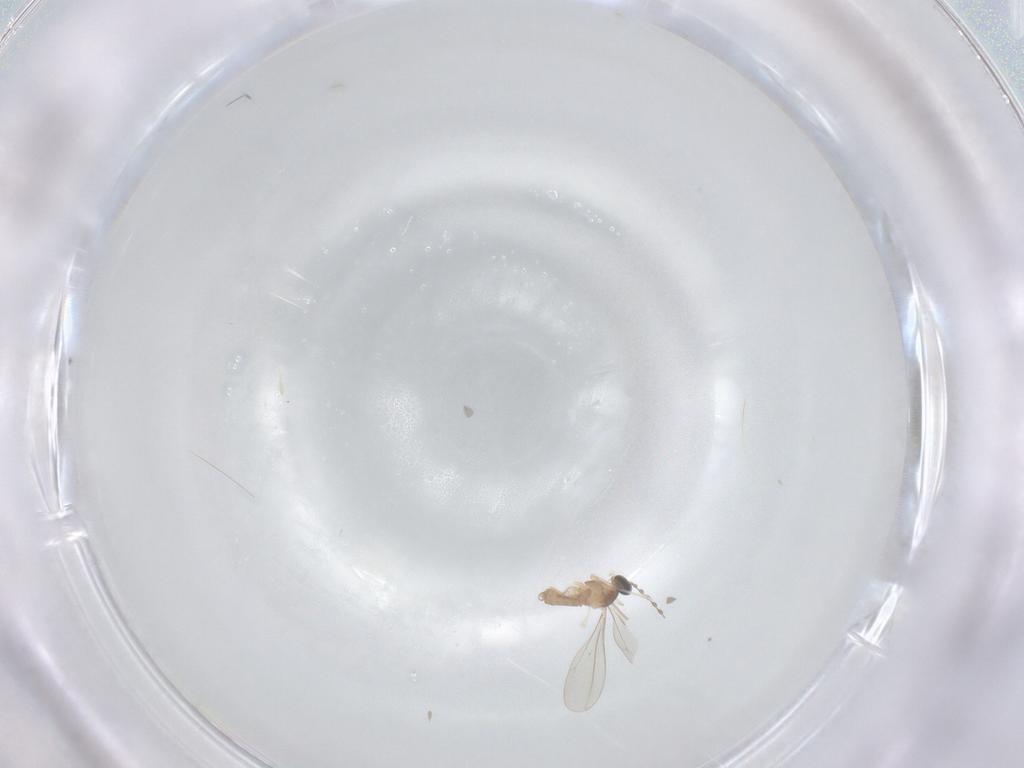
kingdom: Animalia
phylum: Arthropoda
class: Insecta
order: Diptera
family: Cecidomyiidae
